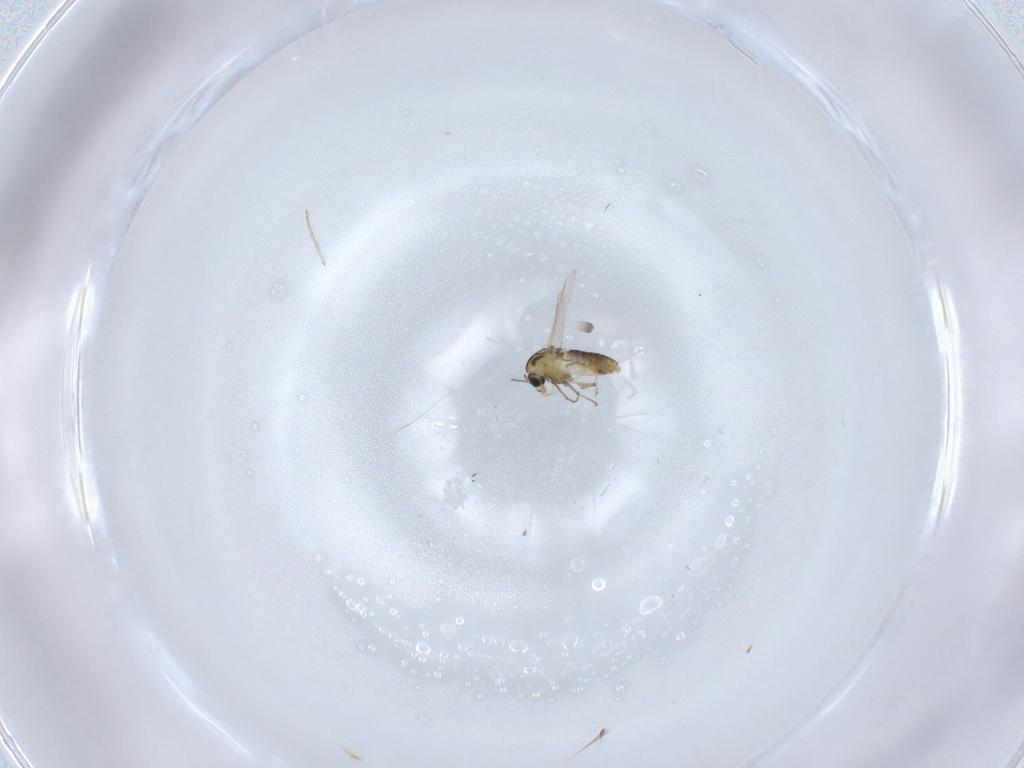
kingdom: Animalia
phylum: Arthropoda
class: Insecta
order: Diptera
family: Chironomidae
